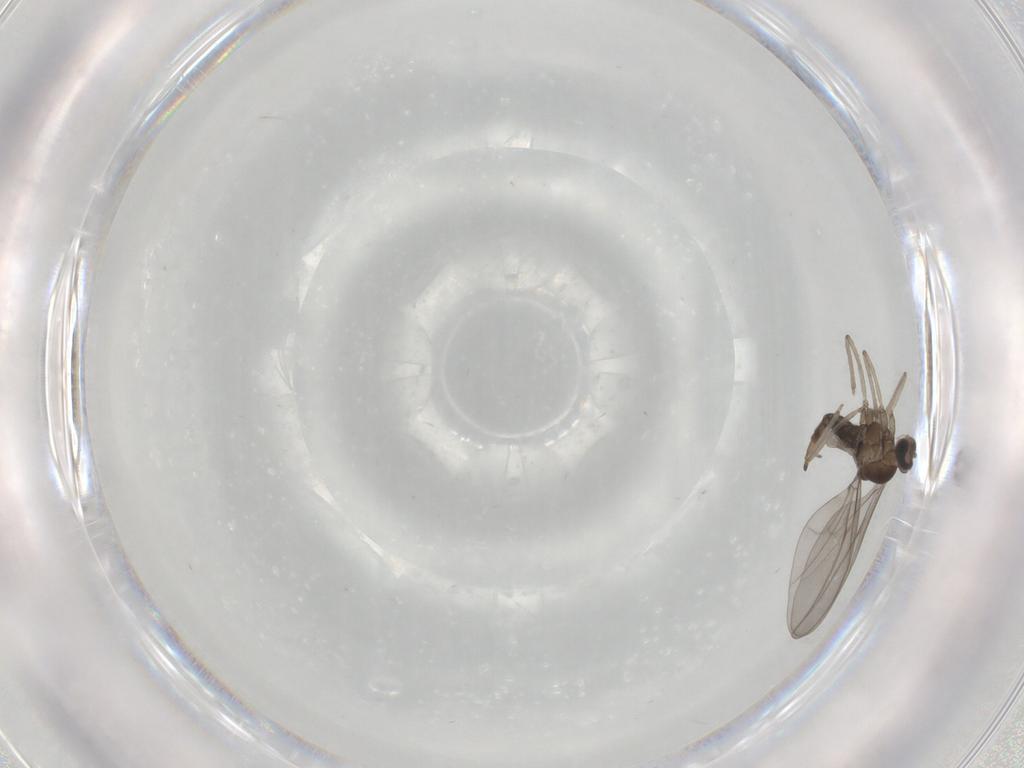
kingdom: Animalia
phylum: Arthropoda
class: Insecta
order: Diptera
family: Cecidomyiidae
